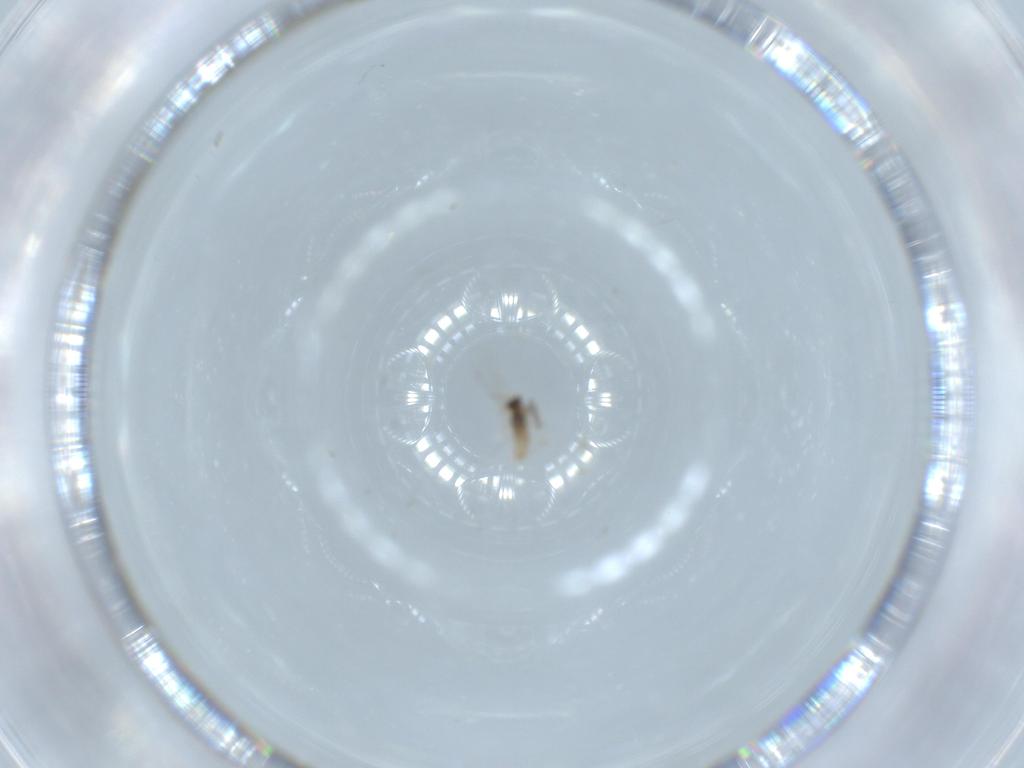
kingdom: Animalia
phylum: Arthropoda
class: Insecta
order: Diptera
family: Cecidomyiidae
